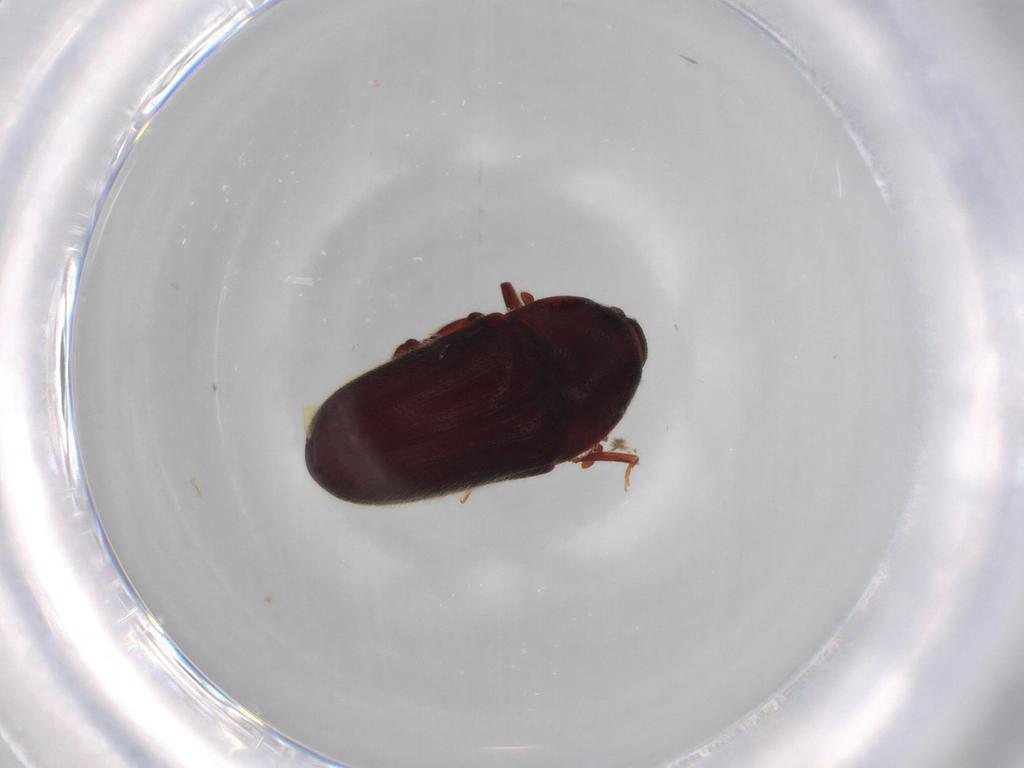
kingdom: Animalia
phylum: Arthropoda
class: Insecta
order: Coleoptera
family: Throscidae
